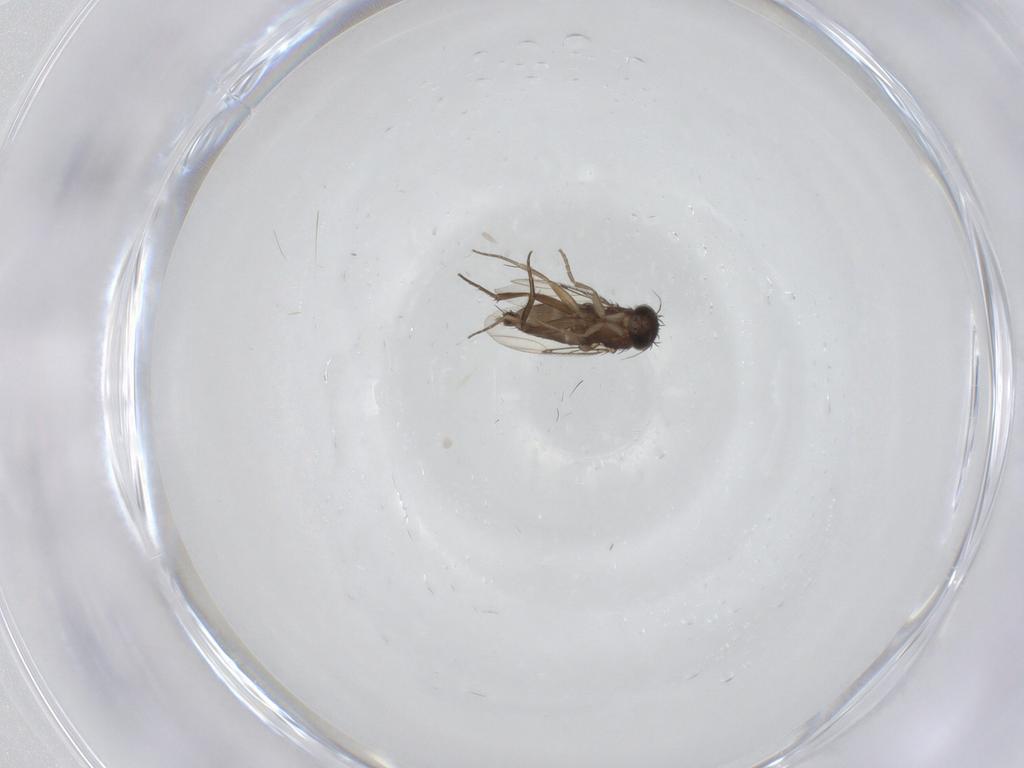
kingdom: Animalia
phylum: Arthropoda
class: Insecta
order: Diptera
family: Phoridae
